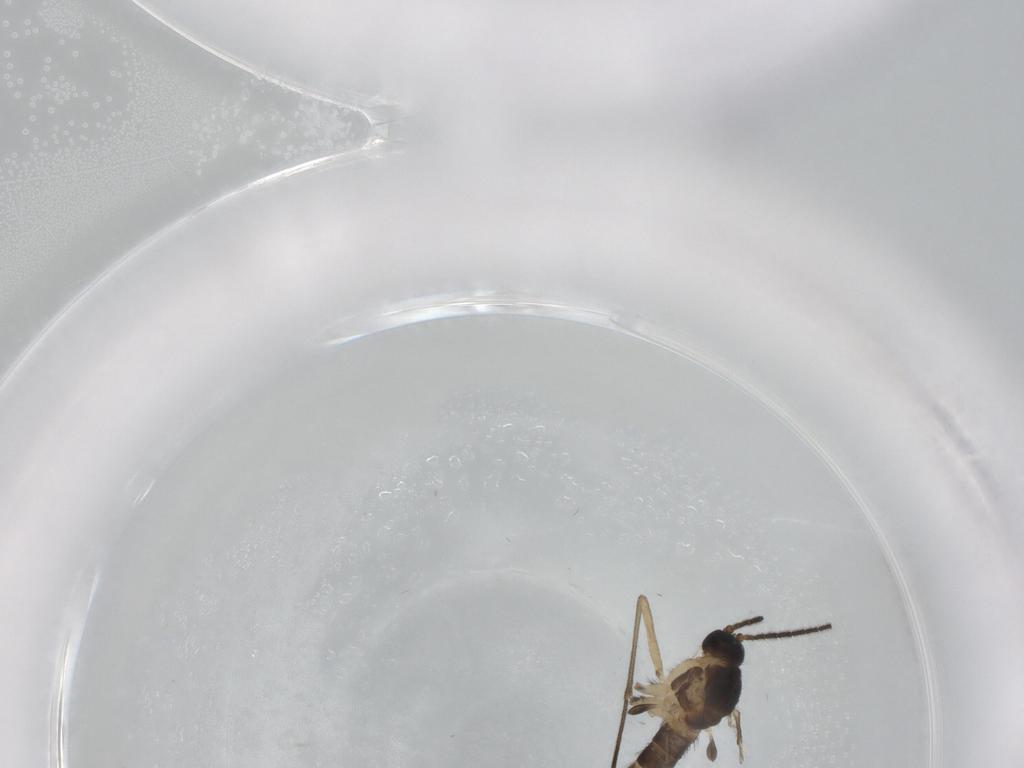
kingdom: Animalia
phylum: Arthropoda
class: Insecta
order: Diptera
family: Sciaridae
